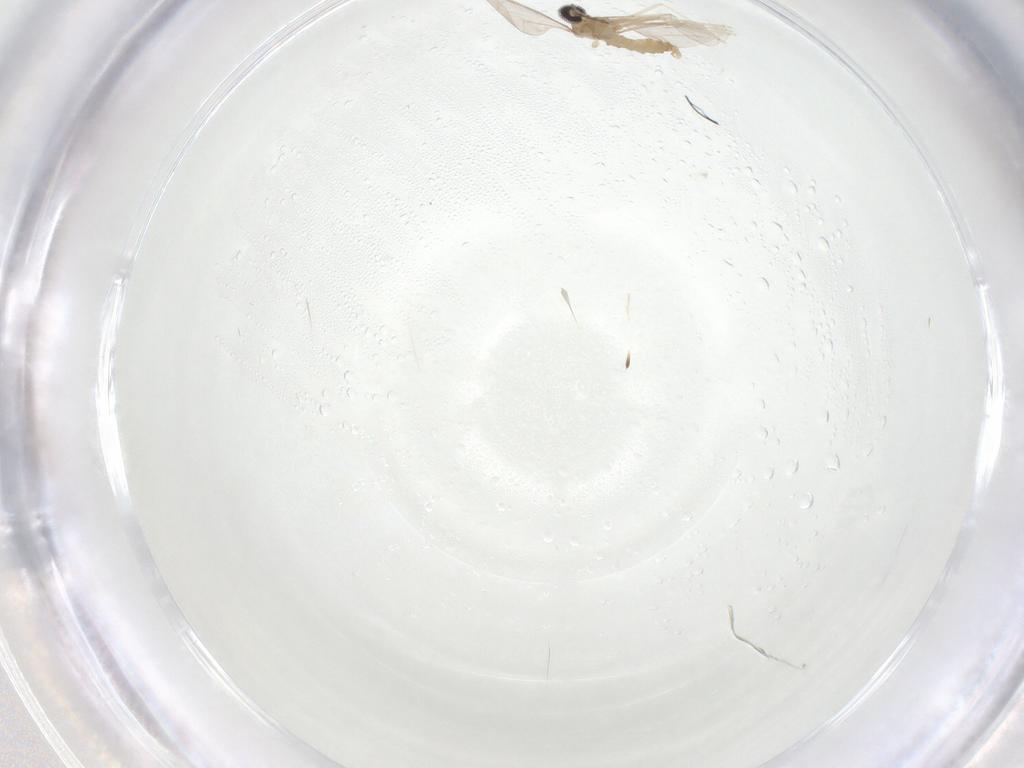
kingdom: Animalia
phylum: Arthropoda
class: Insecta
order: Diptera
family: Cecidomyiidae
